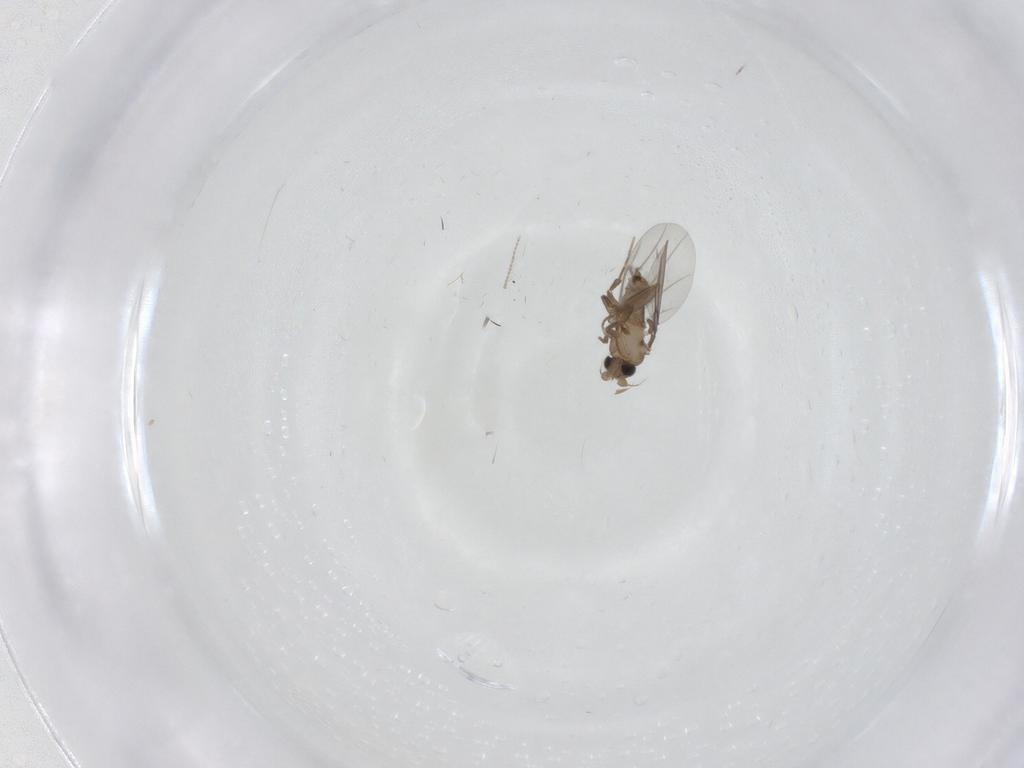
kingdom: Animalia
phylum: Arthropoda
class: Insecta
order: Diptera
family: Ceratopogonidae
